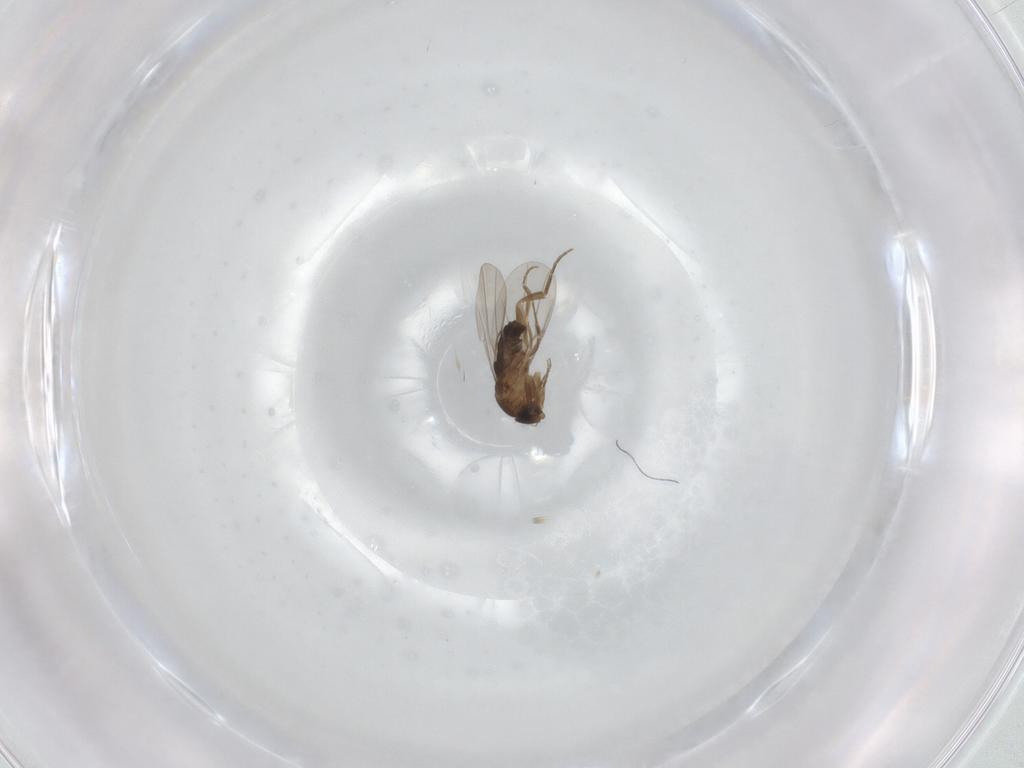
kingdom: Animalia
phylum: Arthropoda
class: Insecta
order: Diptera
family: Phoridae
